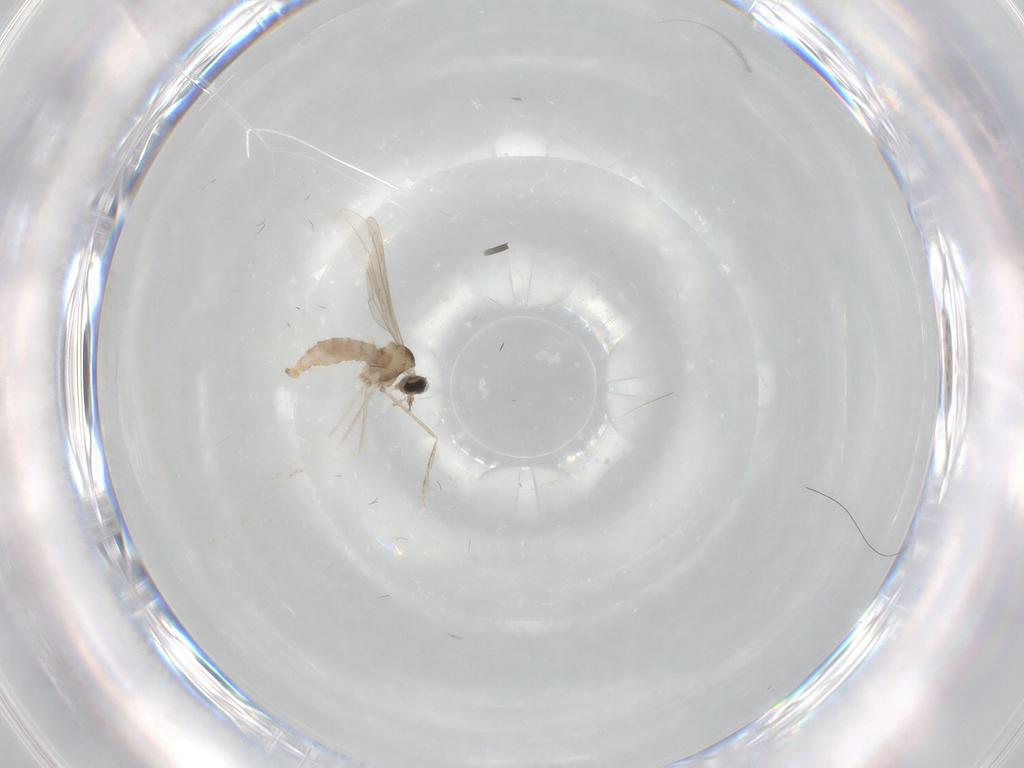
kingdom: Animalia
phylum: Arthropoda
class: Insecta
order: Diptera
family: Cecidomyiidae
